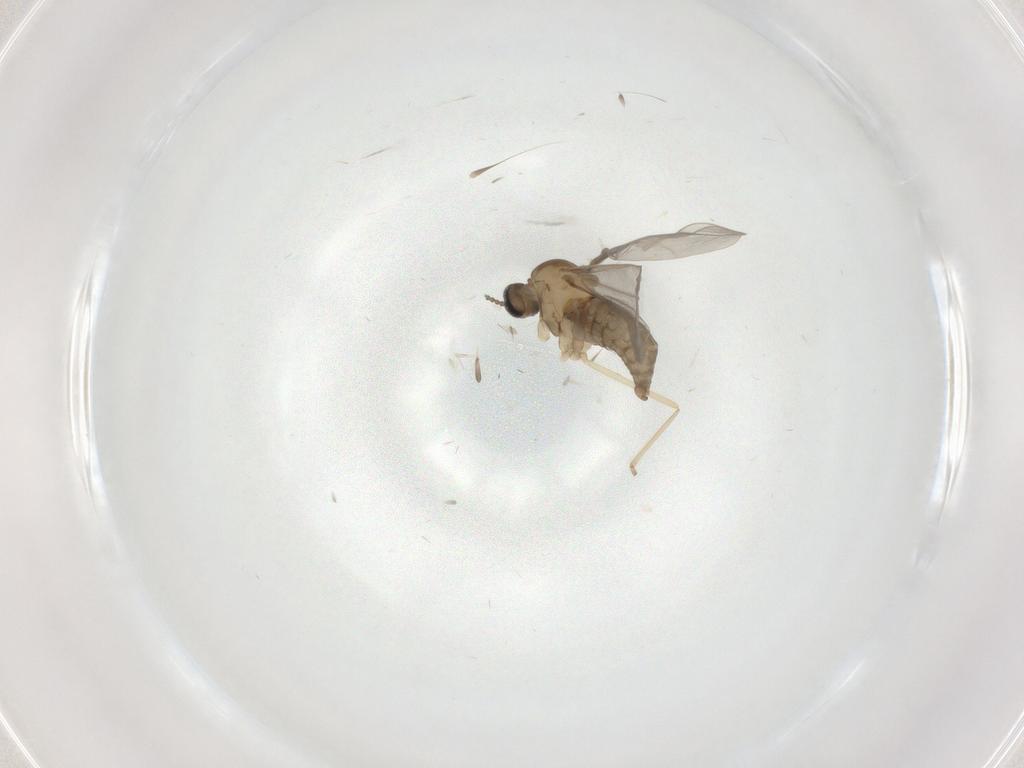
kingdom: Animalia
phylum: Arthropoda
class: Insecta
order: Diptera
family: Cecidomyiidae
